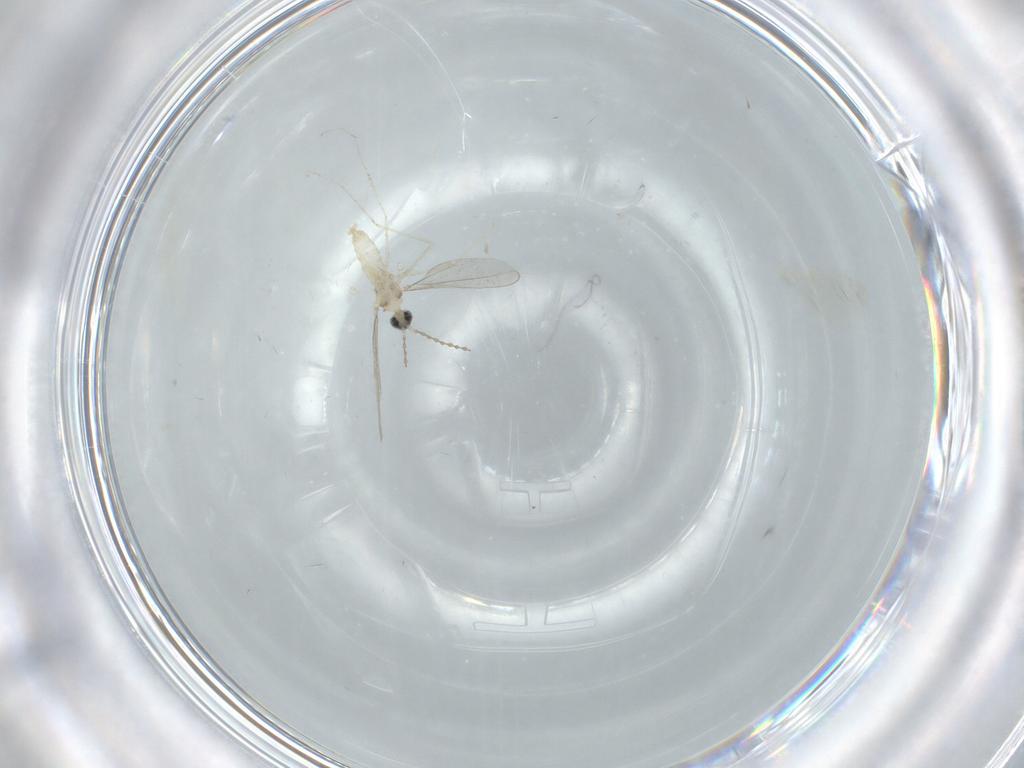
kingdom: Animalia
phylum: Arthropoda
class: Insecta
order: Diptera
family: Cecidomyiidae
